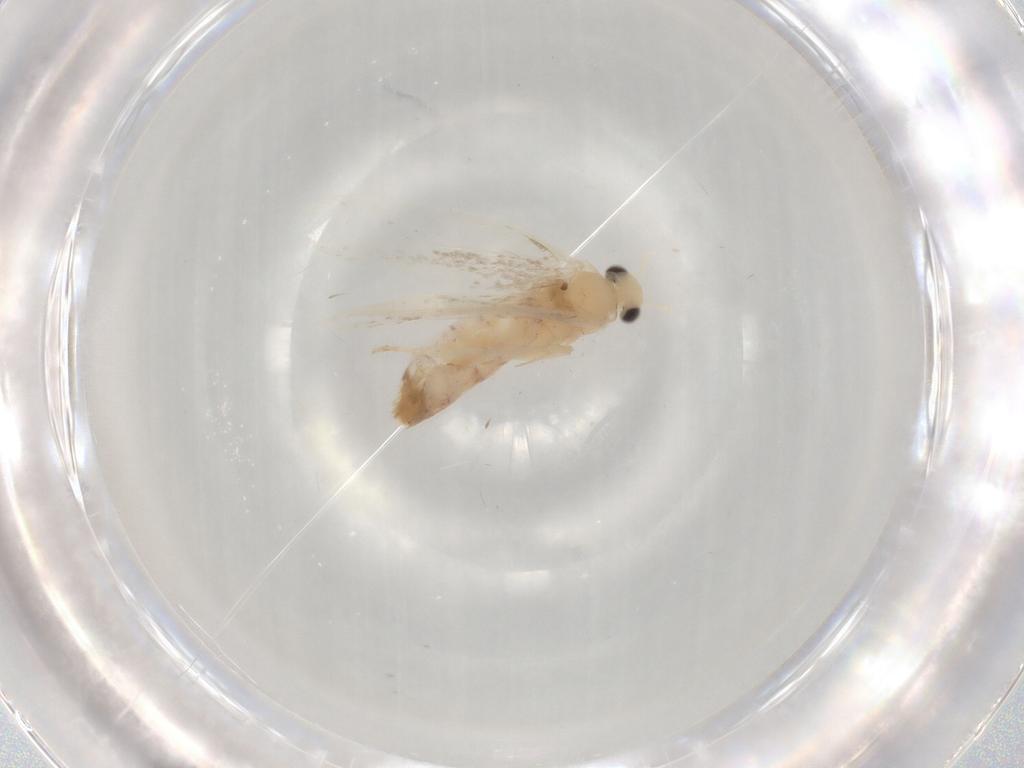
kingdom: Animalia
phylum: Arthropoda
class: Insecta
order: Lepidoptera
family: Dryadaulidae
